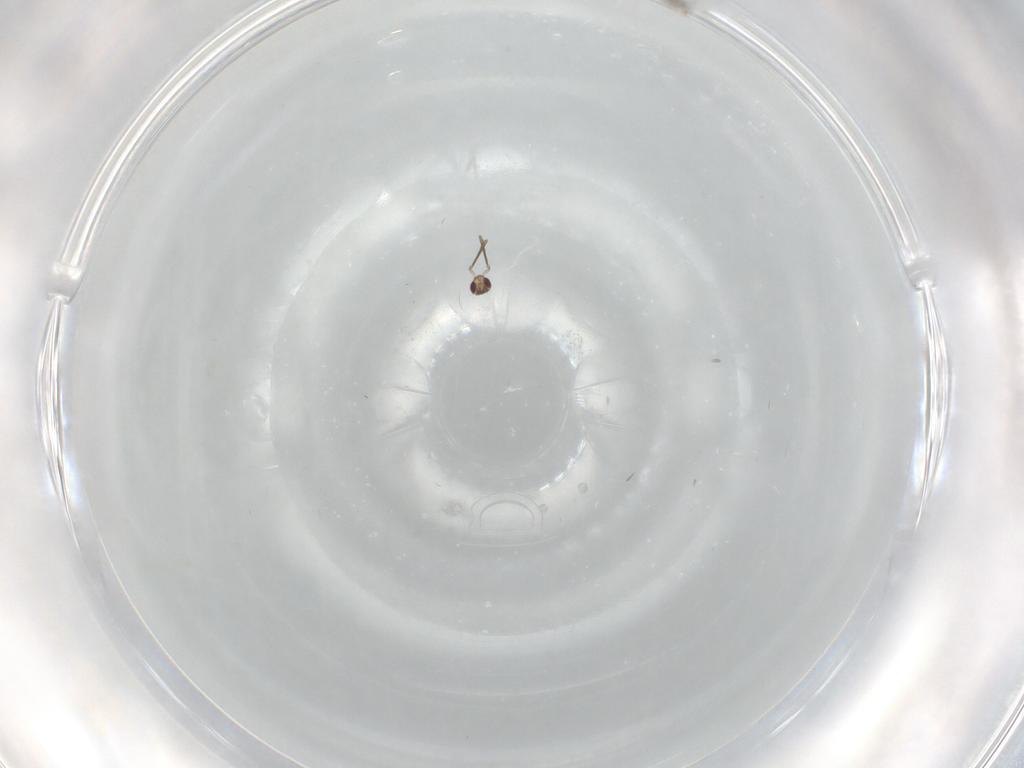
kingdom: Animalia
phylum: Arthropoda
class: Insecta
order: Hymenoptera
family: Mymaridae
